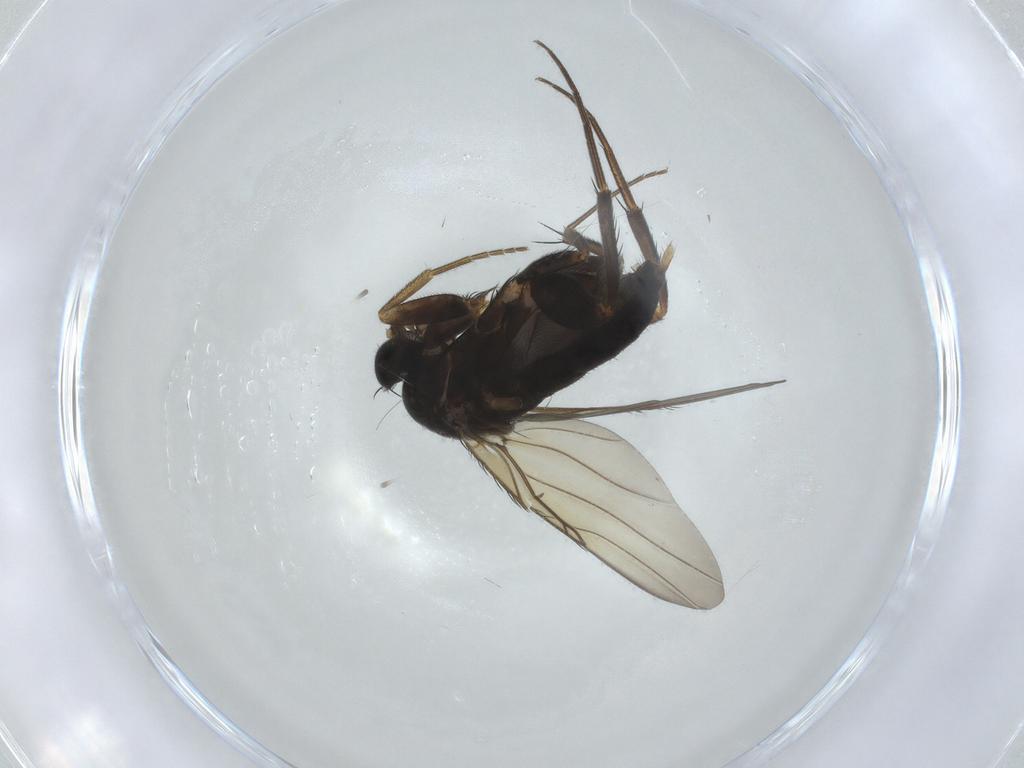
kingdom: Animalia
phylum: Arthropoda
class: Insecta
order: Diptera
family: Phoridae
